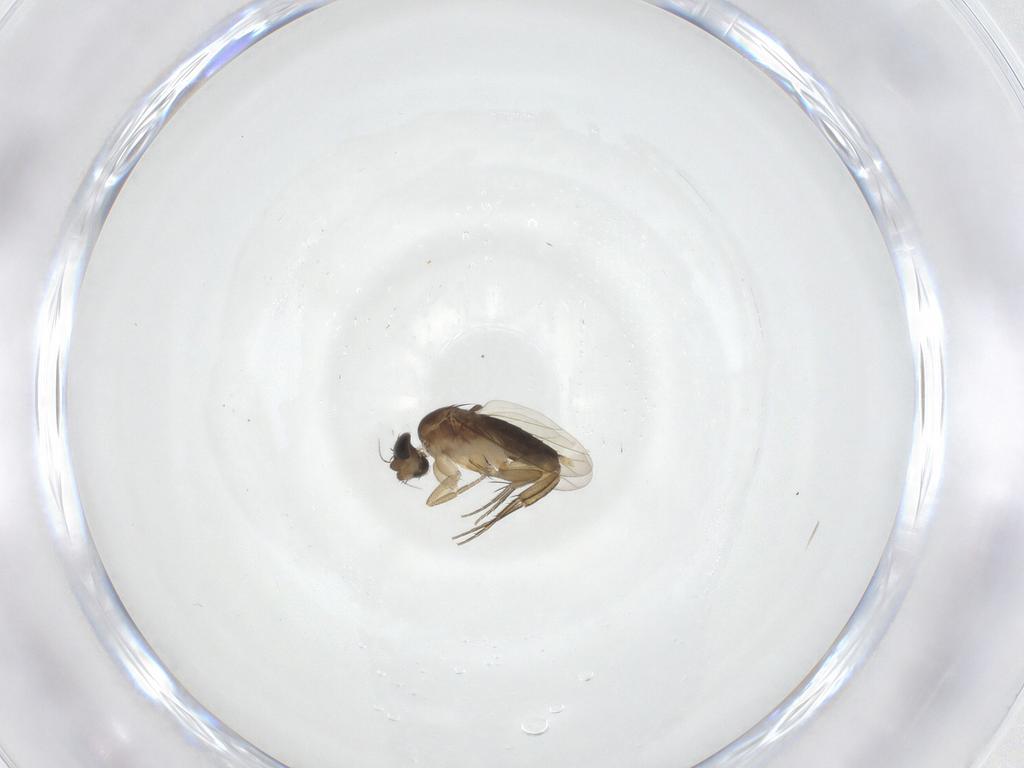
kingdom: Animalia
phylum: Arthropoda
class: Insecta
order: Diptera
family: Phoridae
